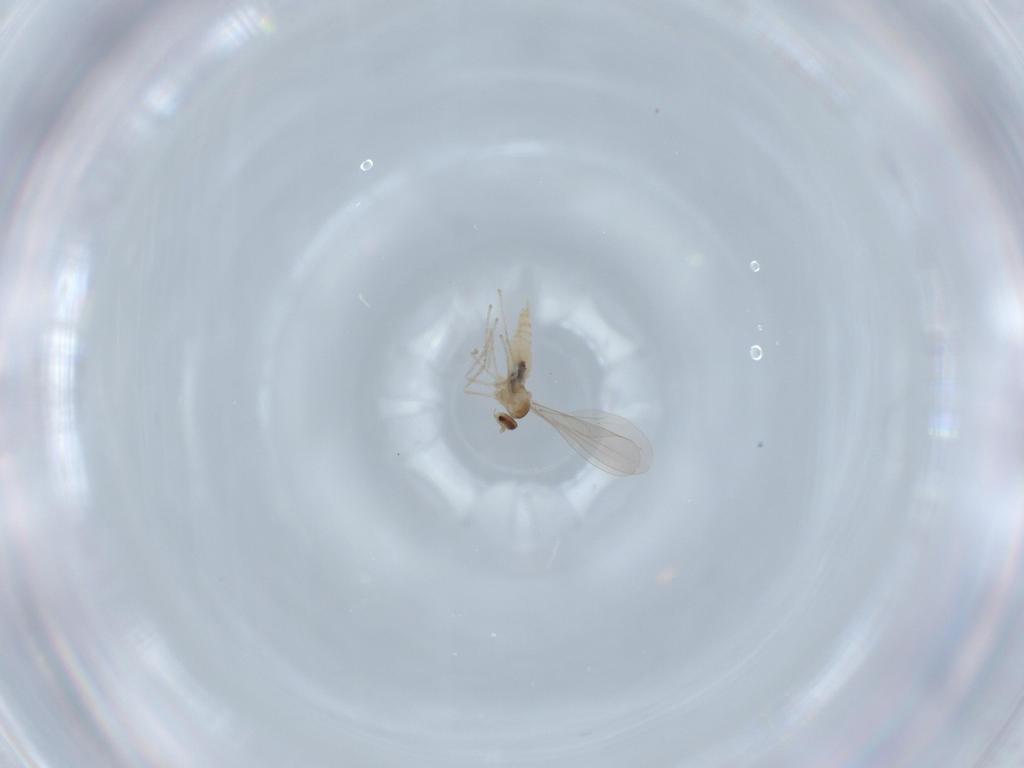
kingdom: Animalia
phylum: Arthropoda
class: Insecta
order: Diptera
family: Cecidomyiidae
